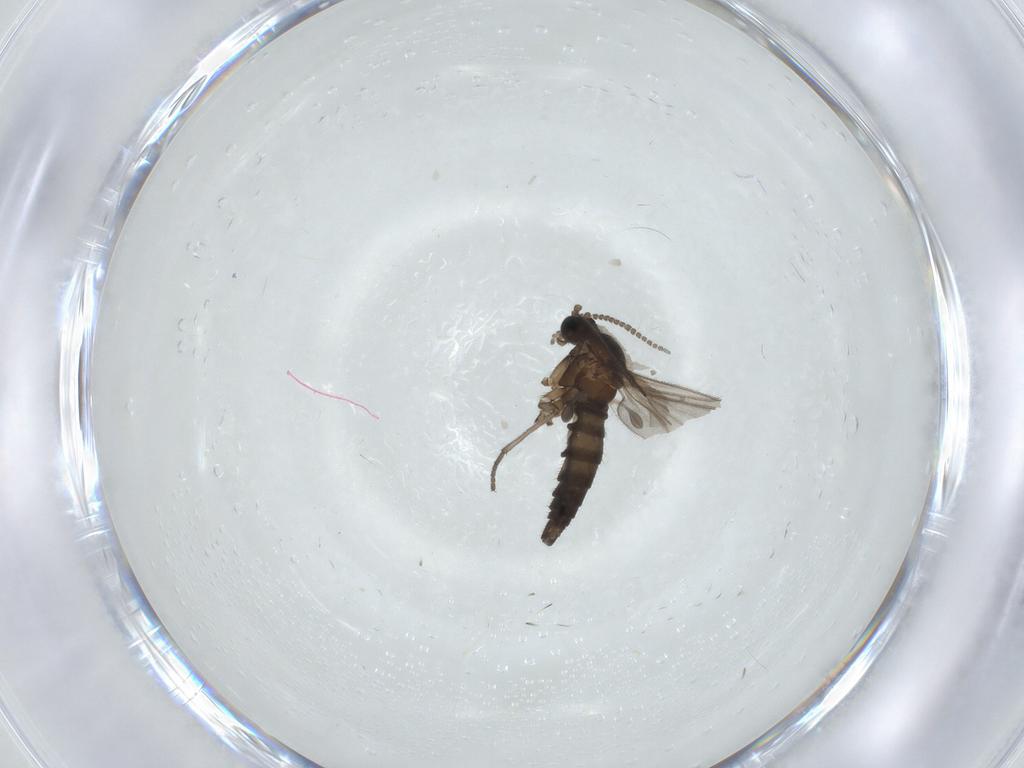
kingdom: Animalia
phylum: Arthropoda
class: Insecta
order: Diptera
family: Sciaridae
